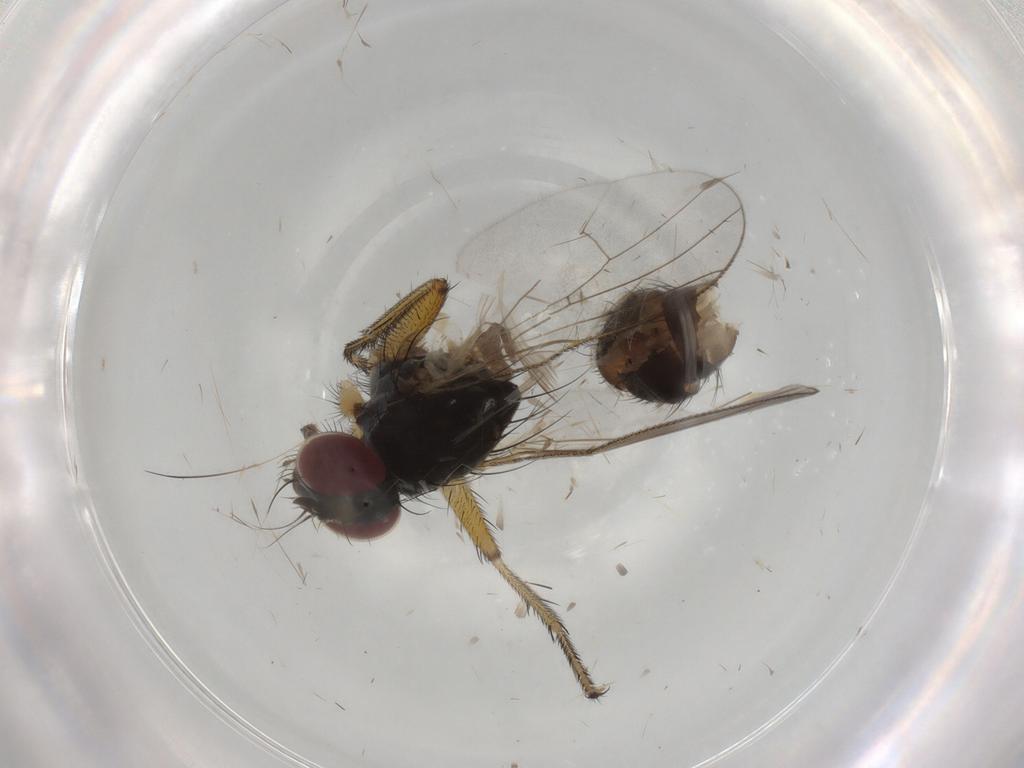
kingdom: Animalia
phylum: Arthropoda
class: Insecta
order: Diptera
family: Muscidae
